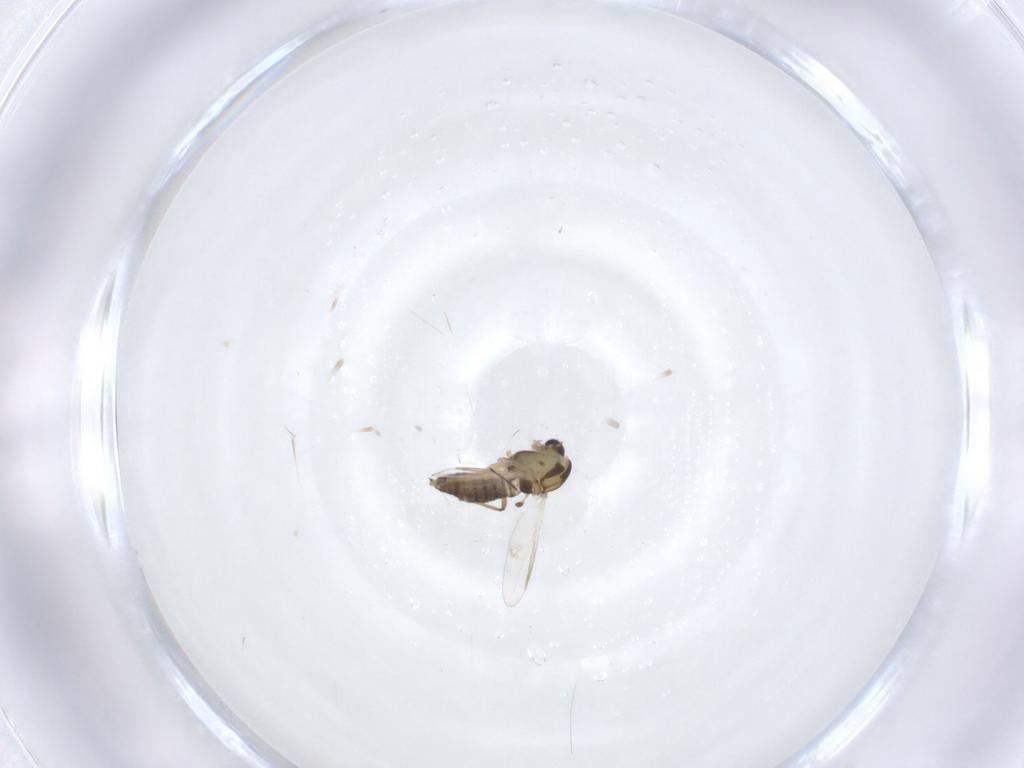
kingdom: Animalia
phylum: Arthropoda
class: Insecta
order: Diptera
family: Chironomidae
